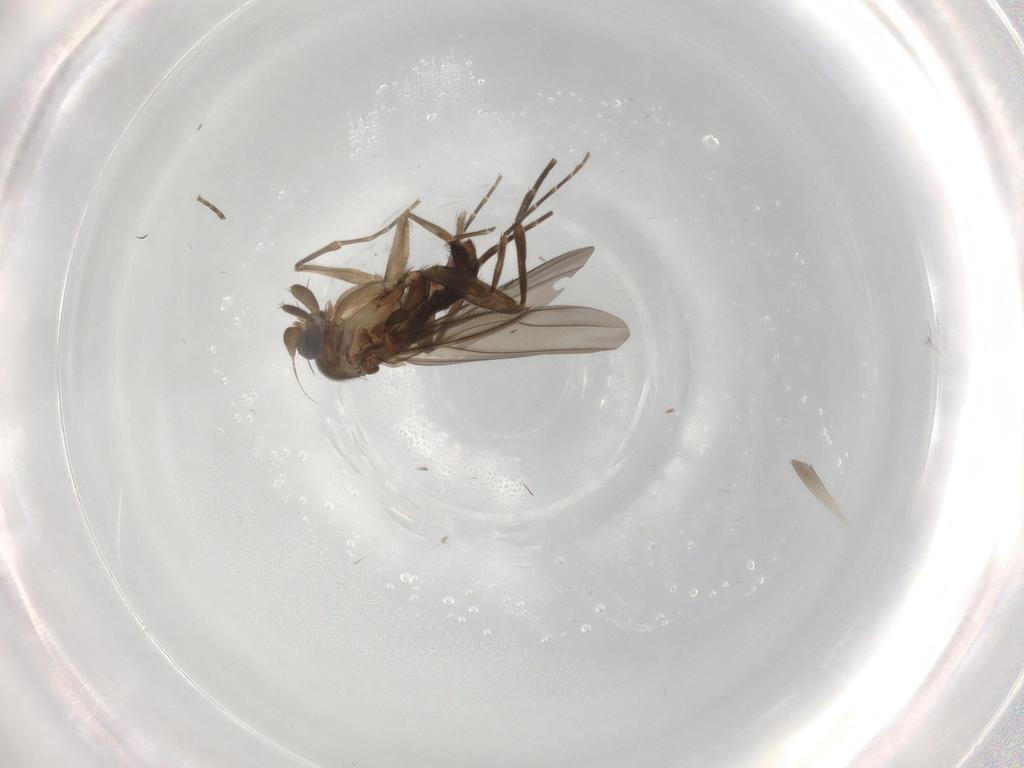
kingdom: Animalia
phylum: Arthropoda
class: Insecta
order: Diptera
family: Phoridae
